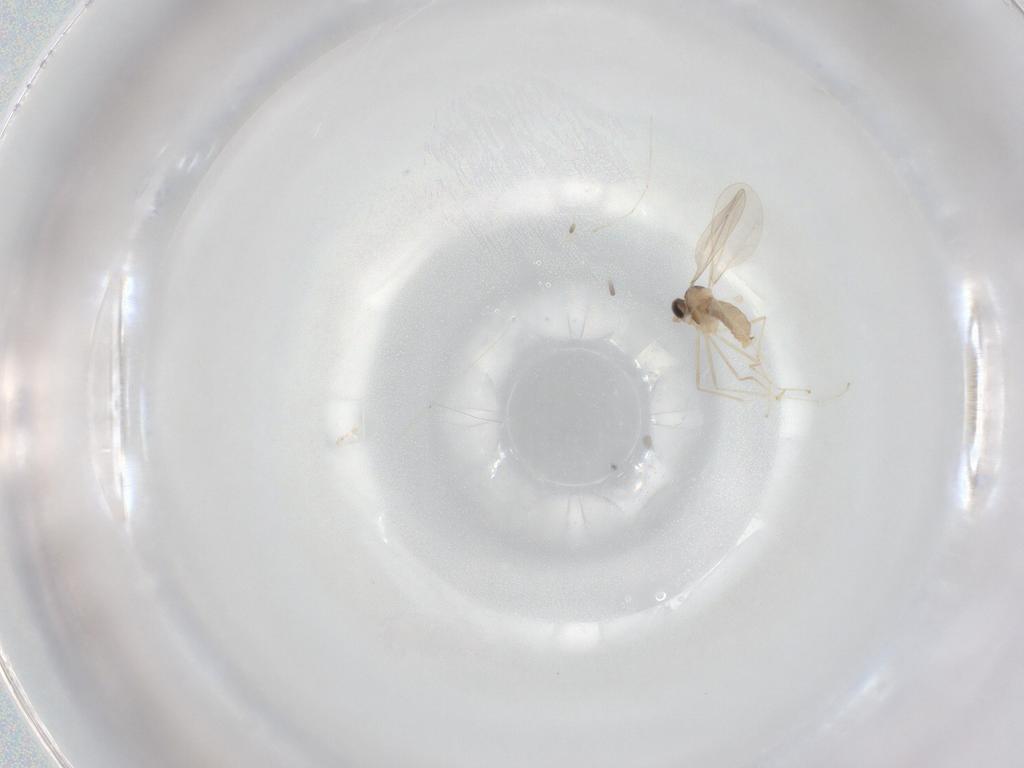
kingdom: Animalia
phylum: Arthropoda
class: Insecta
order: Diptera
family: Cecidomyiidae
